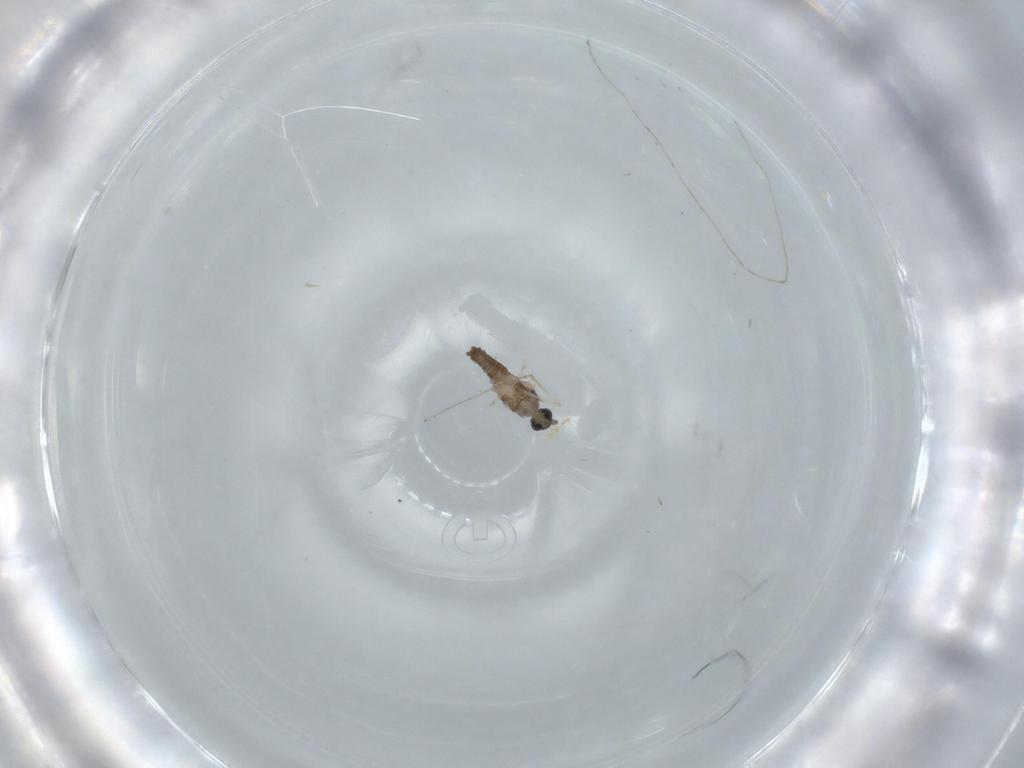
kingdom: Animalia
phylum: Arthropoda
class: Insecta
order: Diptera
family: Cecidomyiidae
